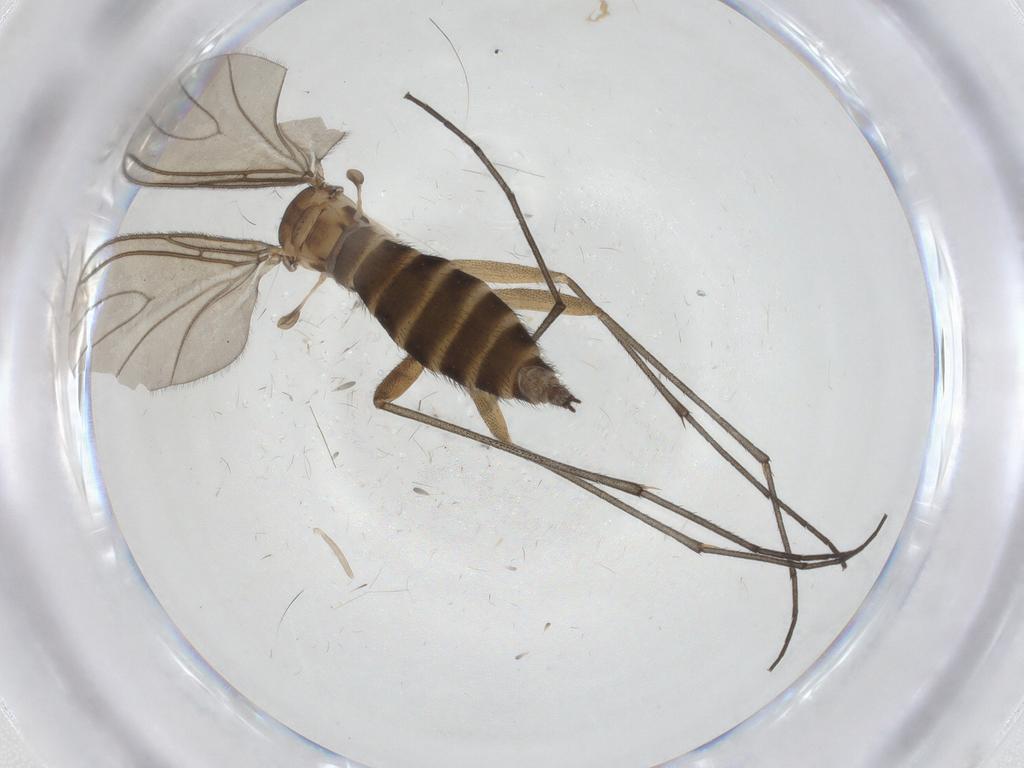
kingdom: Animalia
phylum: Arthropoda
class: Insecta
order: Diptera
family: Sciaridae
